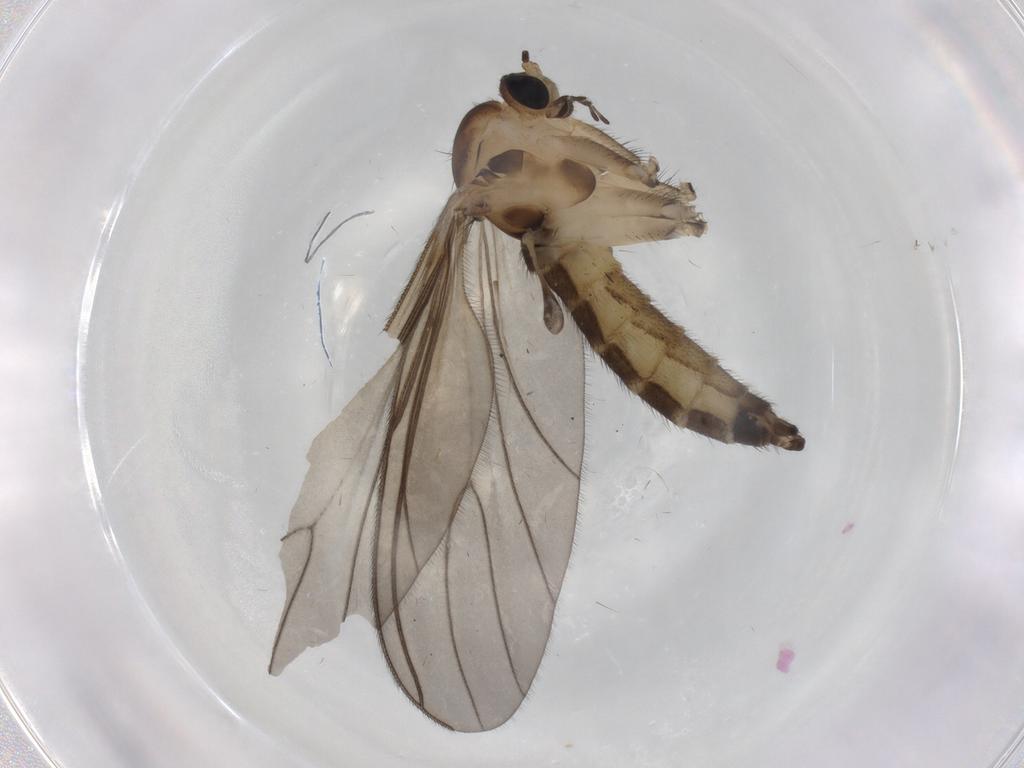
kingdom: Animalia
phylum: Arthropoda
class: Insecta
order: Diptera
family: Sciaridae
